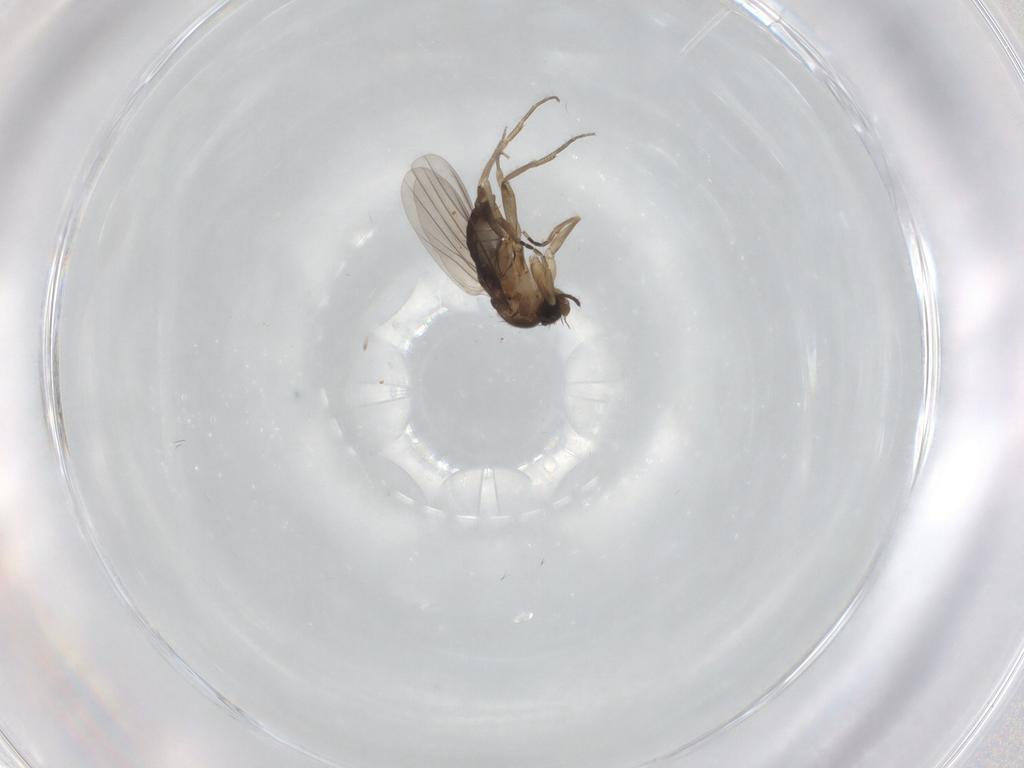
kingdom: Animalia
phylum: Arthropoda
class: Insecta
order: Diptera
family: Phoridae
